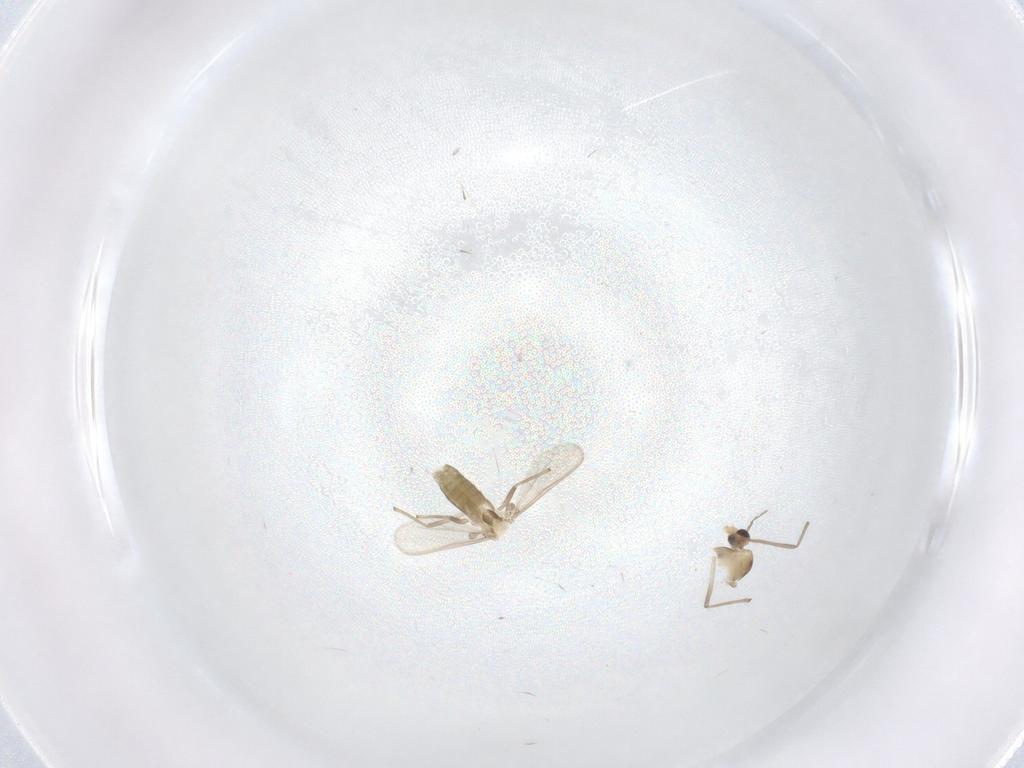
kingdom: Animalia
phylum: Arthropoda
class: Insecta
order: Diptera
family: Chironomidae
